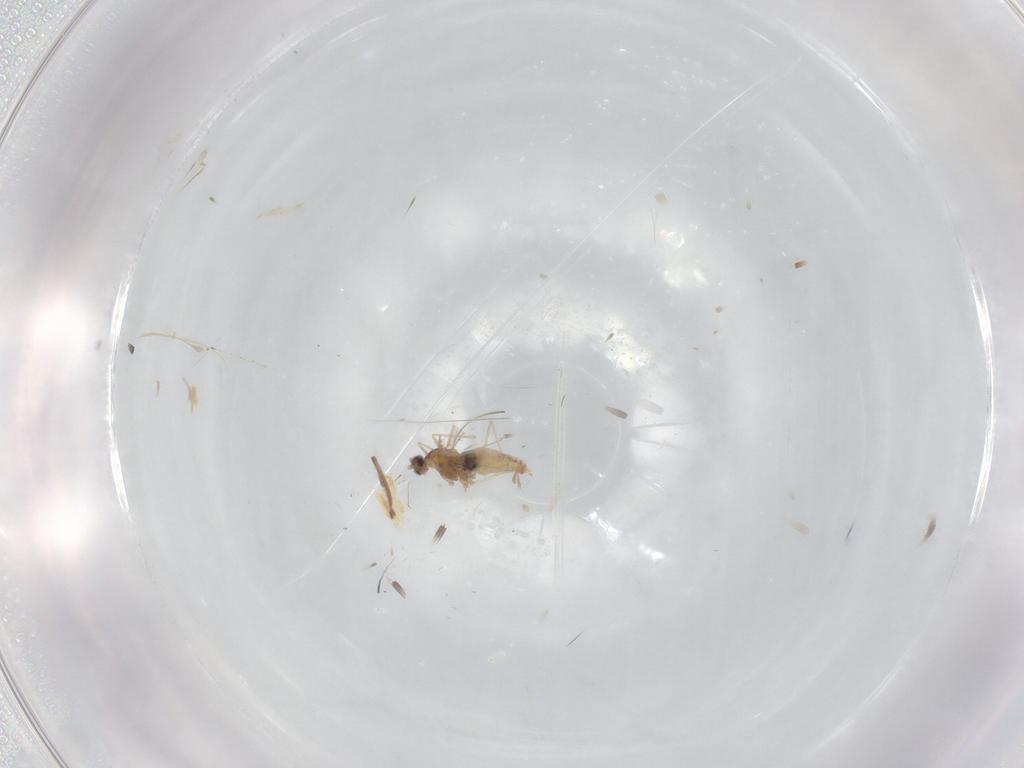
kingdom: Animalia
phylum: Arthropoda
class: Insecta
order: Diptera
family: Cecidomyiidae
